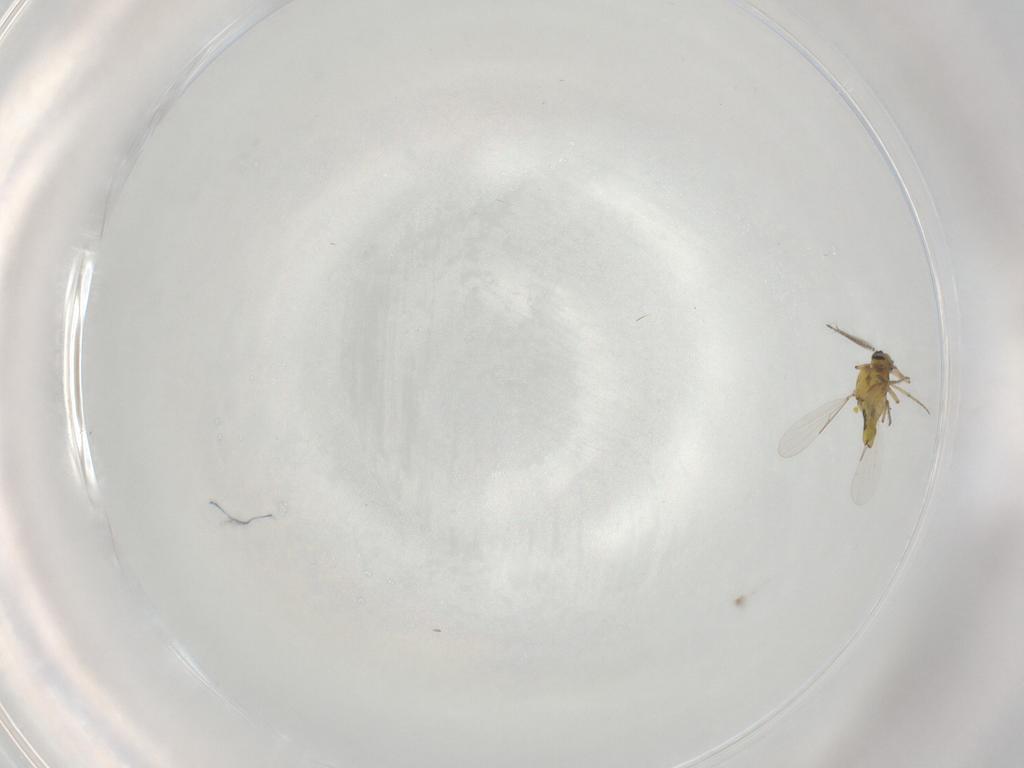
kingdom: Animalia
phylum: Arthropoda
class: Insecta
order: Diptera
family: Ceratopogonidae
